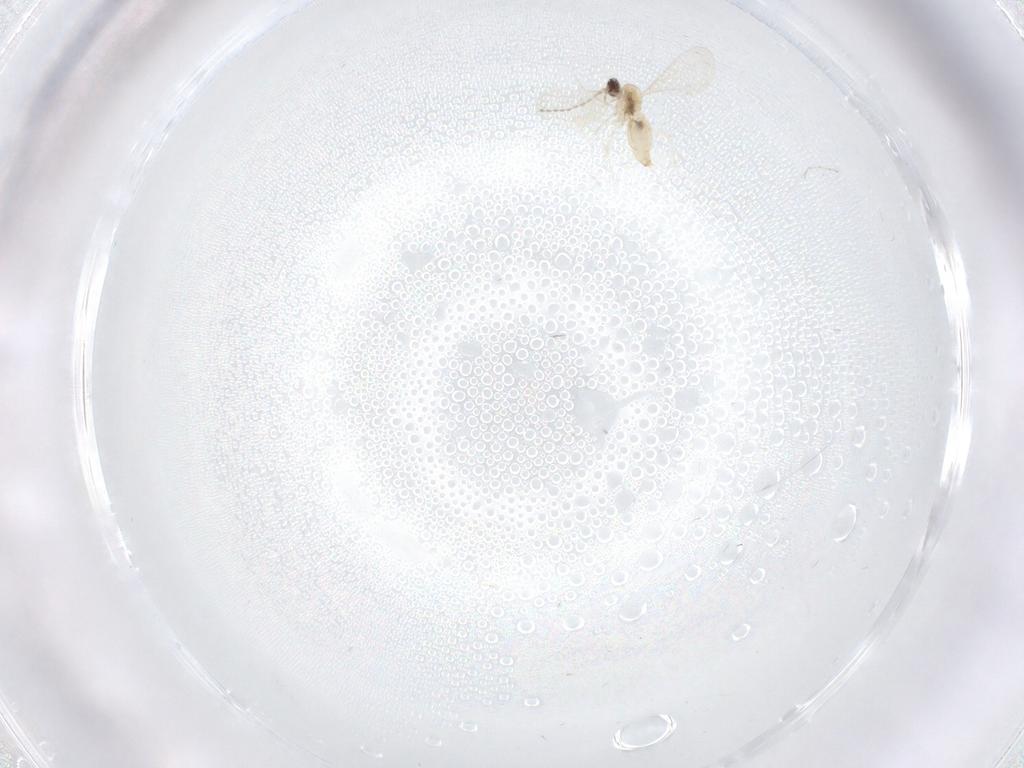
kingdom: Animalia
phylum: Arthropoda
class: Insecta
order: Diptera
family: Cecidomyiidae
